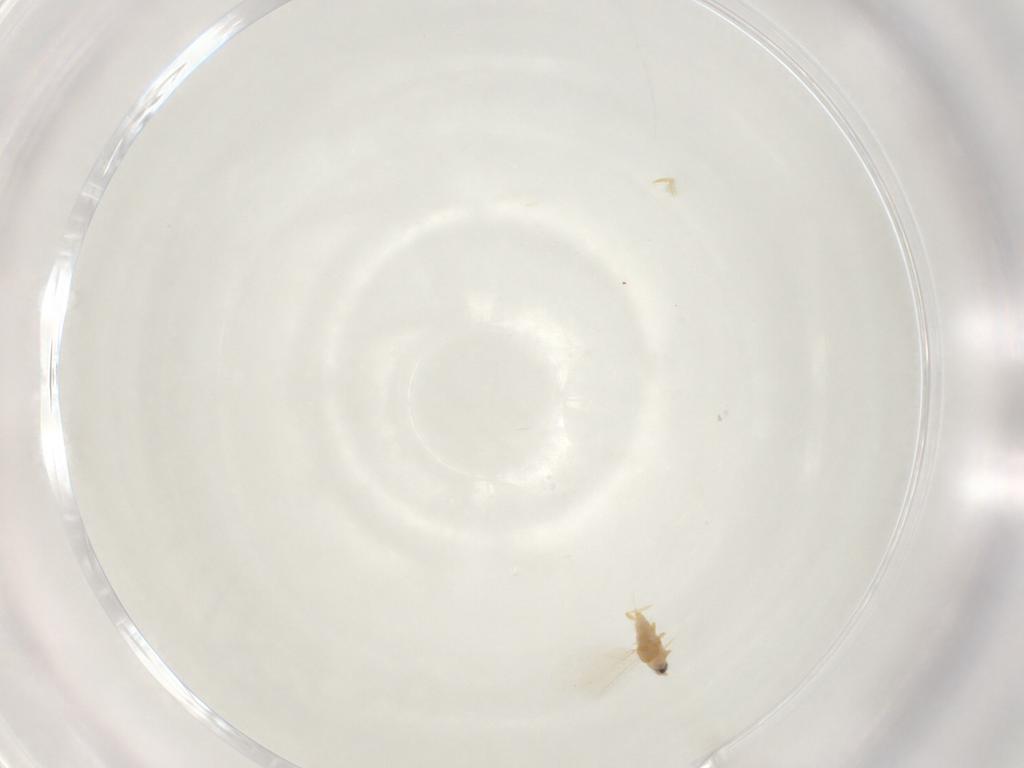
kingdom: Animalia
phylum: Arthropoda
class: Insecta
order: Hemiptera
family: Diaspididae
